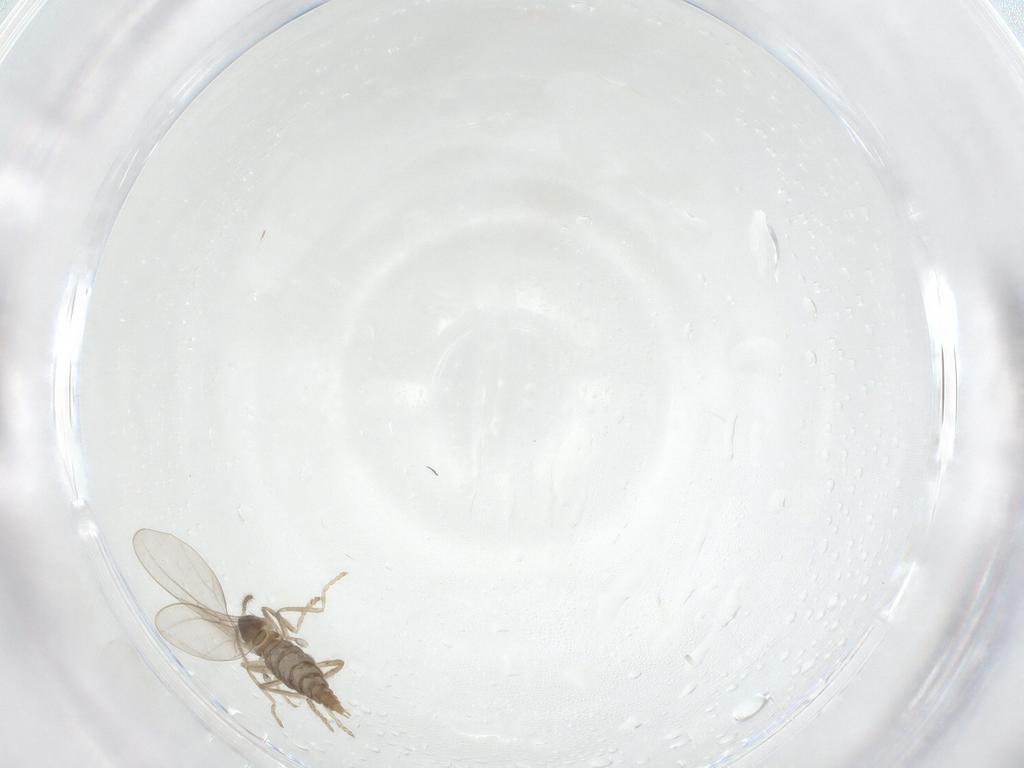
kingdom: Animalia
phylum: Arthropoda
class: Insecta
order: Diptera
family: Cecidomyiidae
